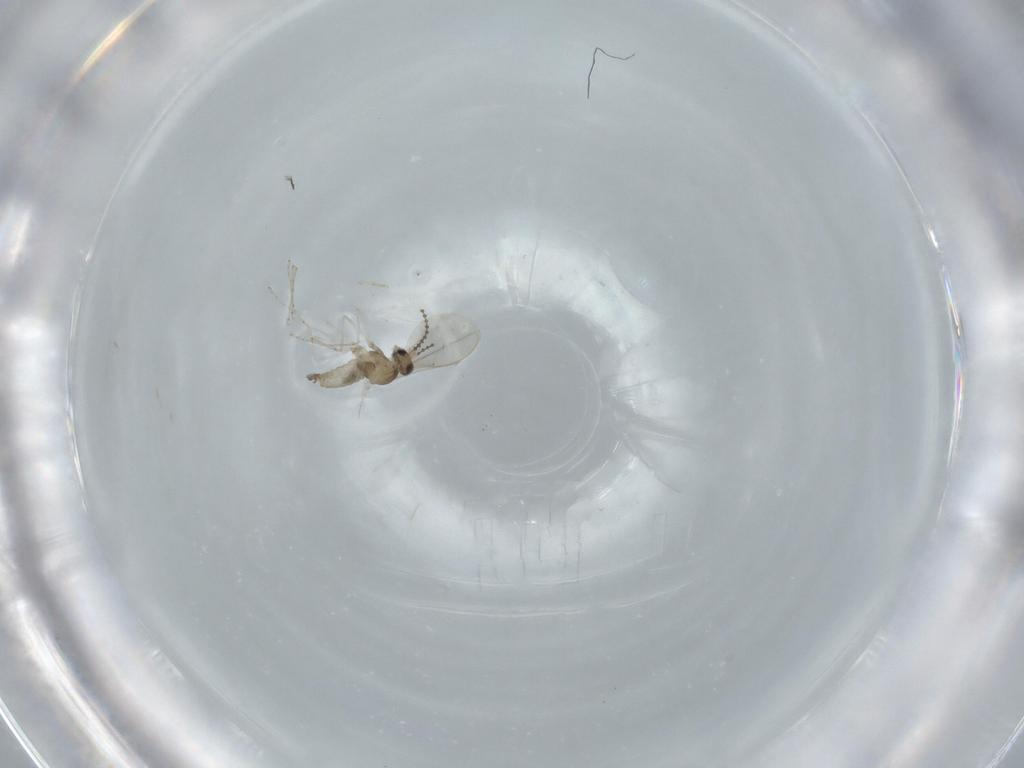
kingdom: Animalia
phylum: Arthropoda
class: Insecta
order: Diptera
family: Cecidomyiidae
